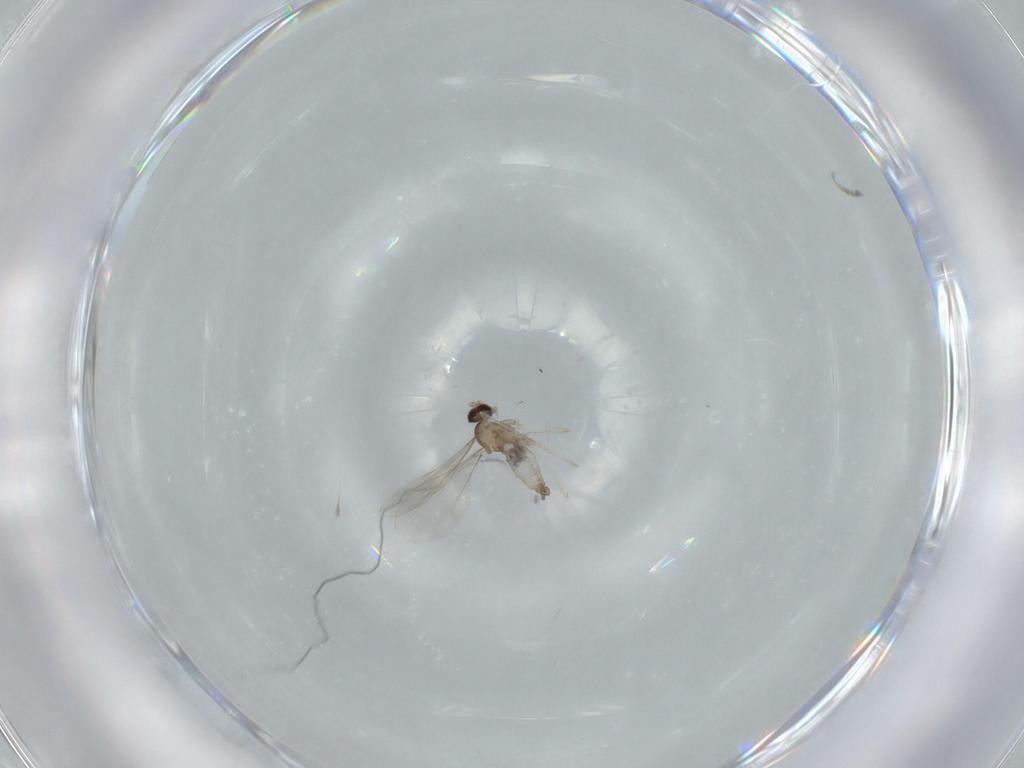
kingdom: Animalia
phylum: Arthropoda
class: Insecta
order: Diptera
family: Cecidomyiidae
